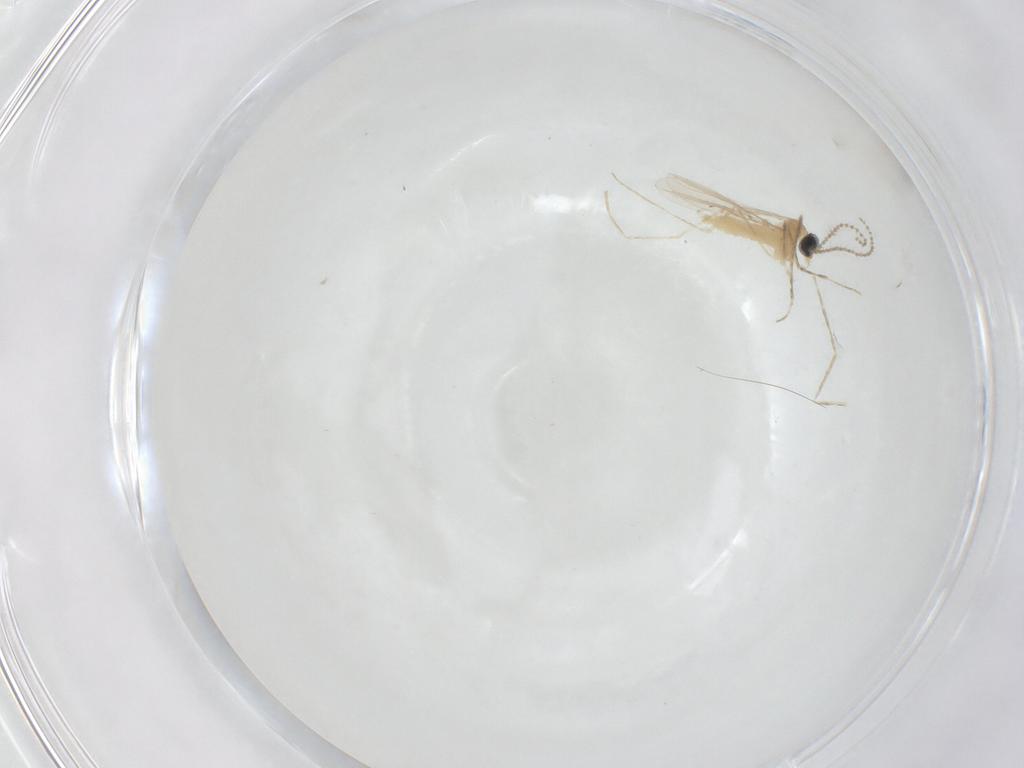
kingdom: Animalia
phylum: Arthropoda
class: Insecta
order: Diptera
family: Cecidomyiidae
